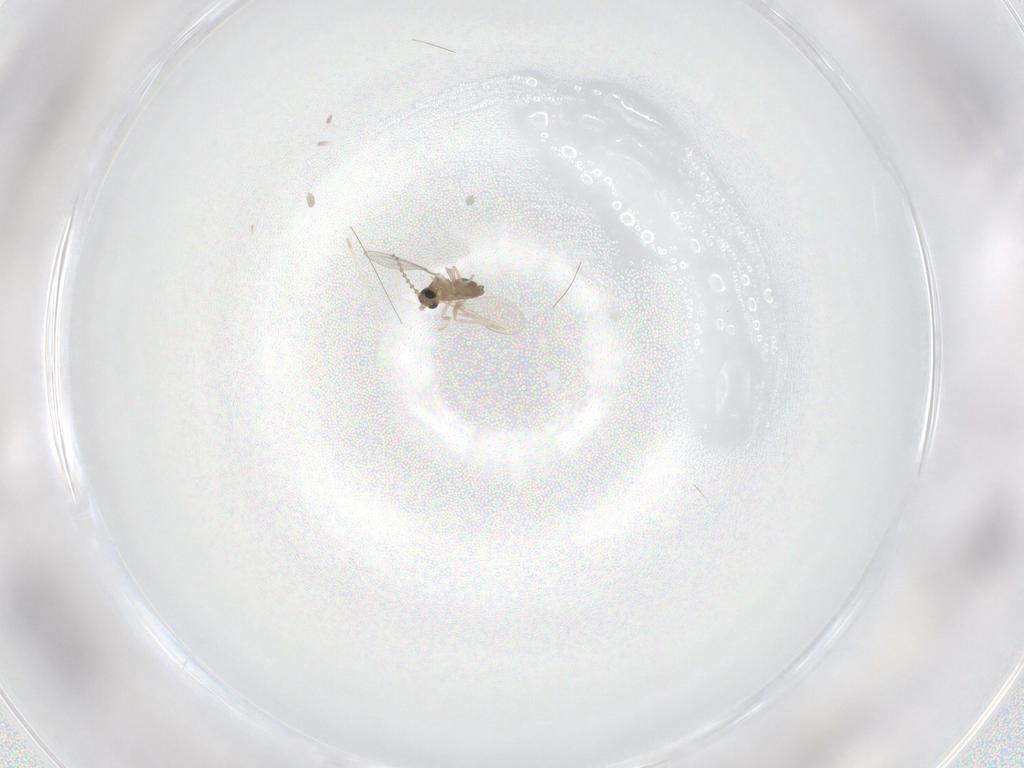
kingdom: Animalia
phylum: Arthropoda
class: Insecta
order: Diptera
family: Cecidomyiidae
